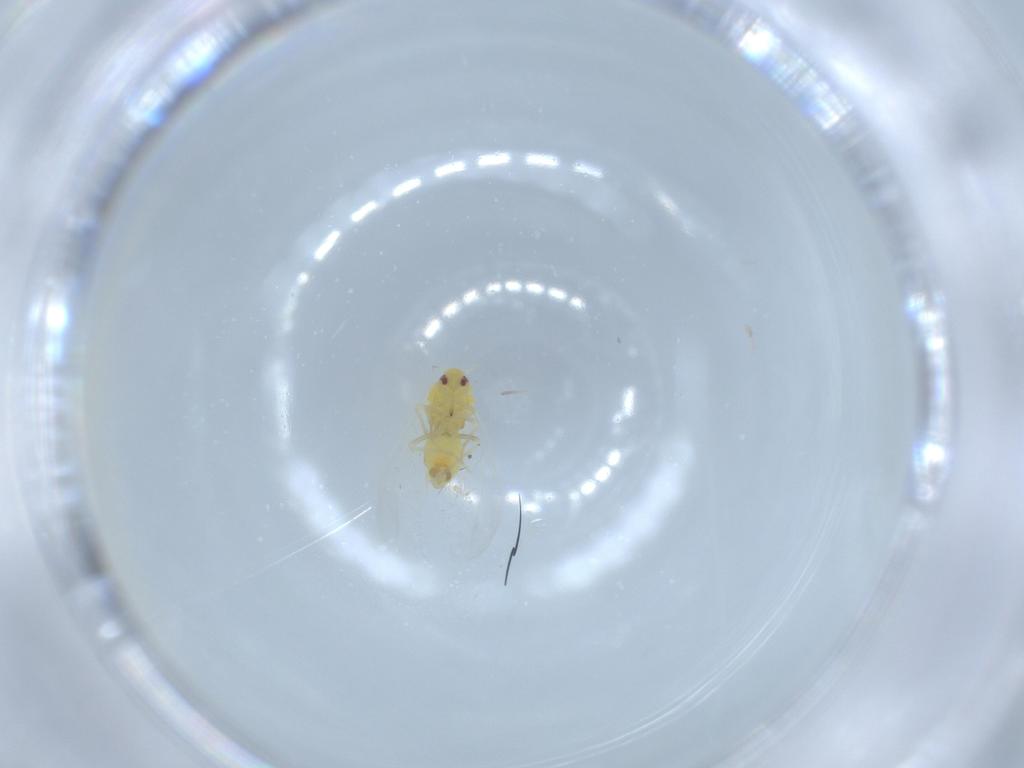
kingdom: Animalia
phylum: Arthropoda
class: Insecta
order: Hemiptera
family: Aleyrodidae
